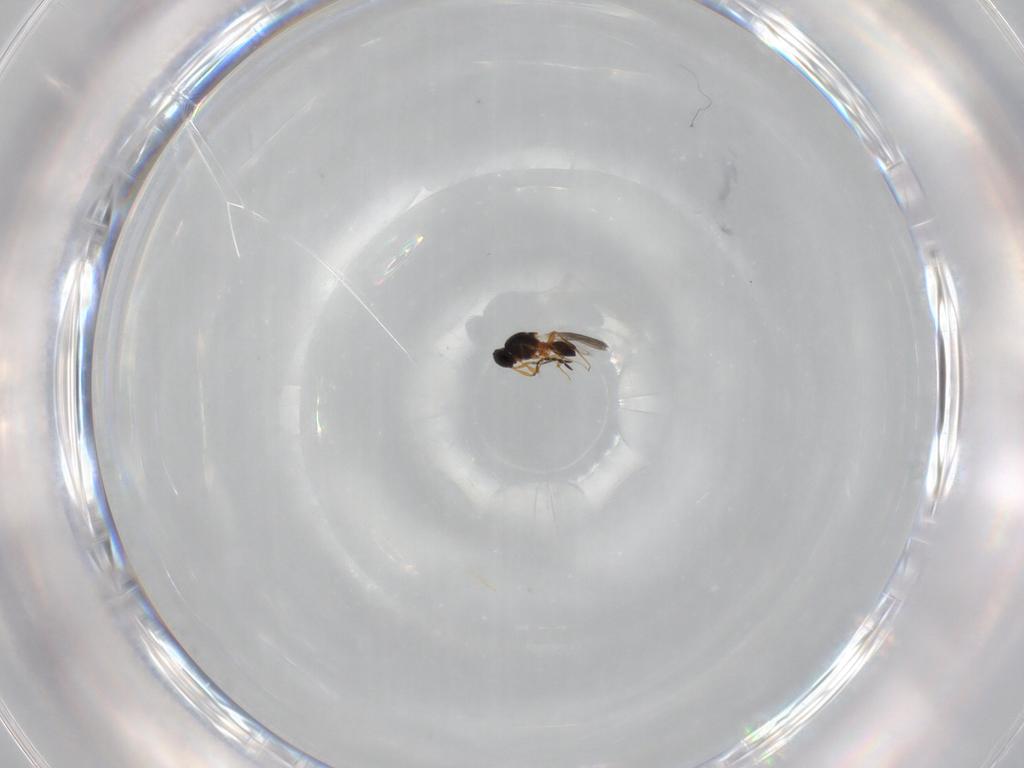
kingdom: Animalia
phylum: Arthropoda
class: Insecta
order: Hymenoptera
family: Platygastridae
